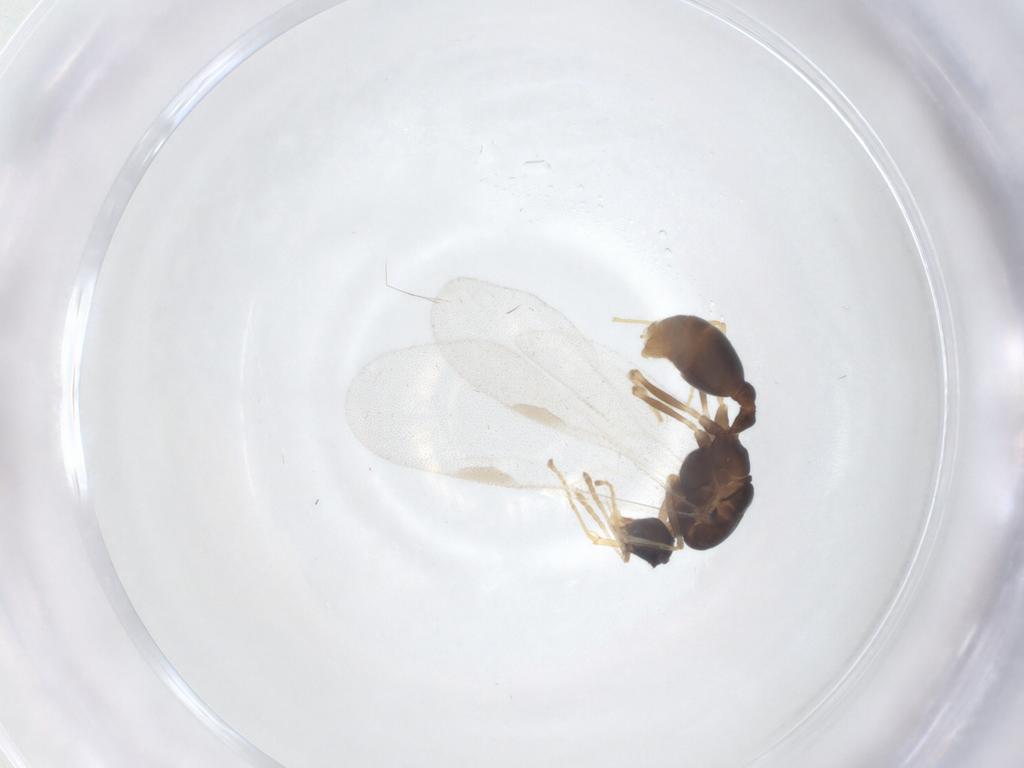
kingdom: Animalia
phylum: Arthropoda
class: Insecta
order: Hymenoptera
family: Formicidae
